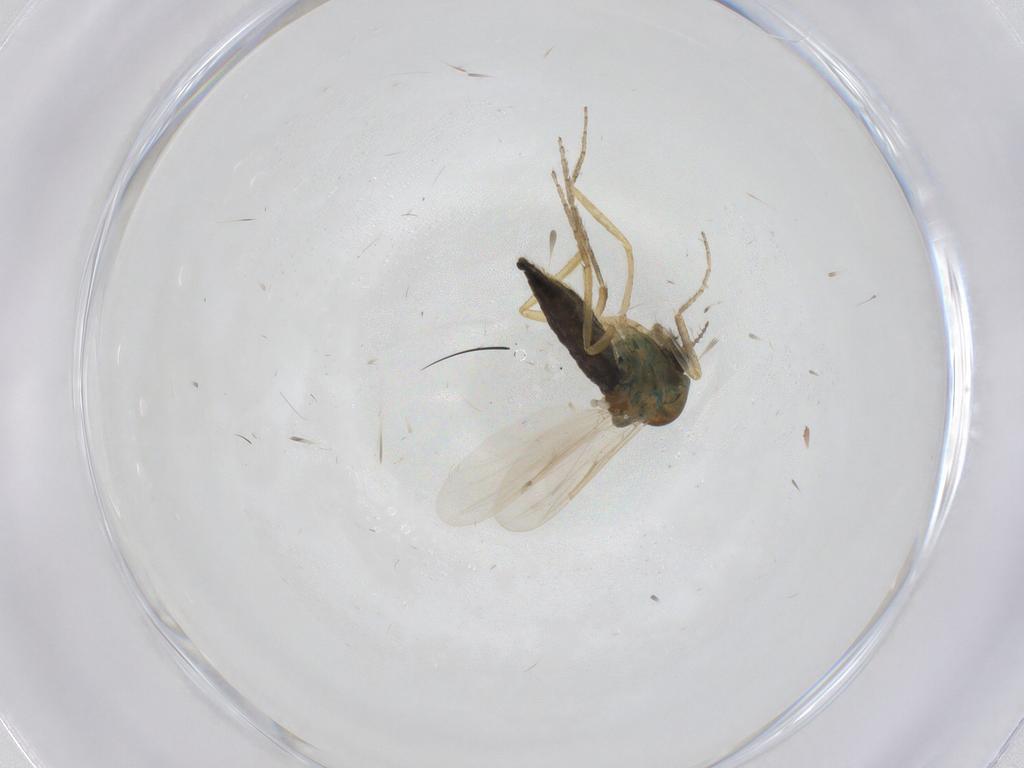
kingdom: Animalia
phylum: Arthropoda
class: Insecta
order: Diptera
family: Ceratopogonidae
